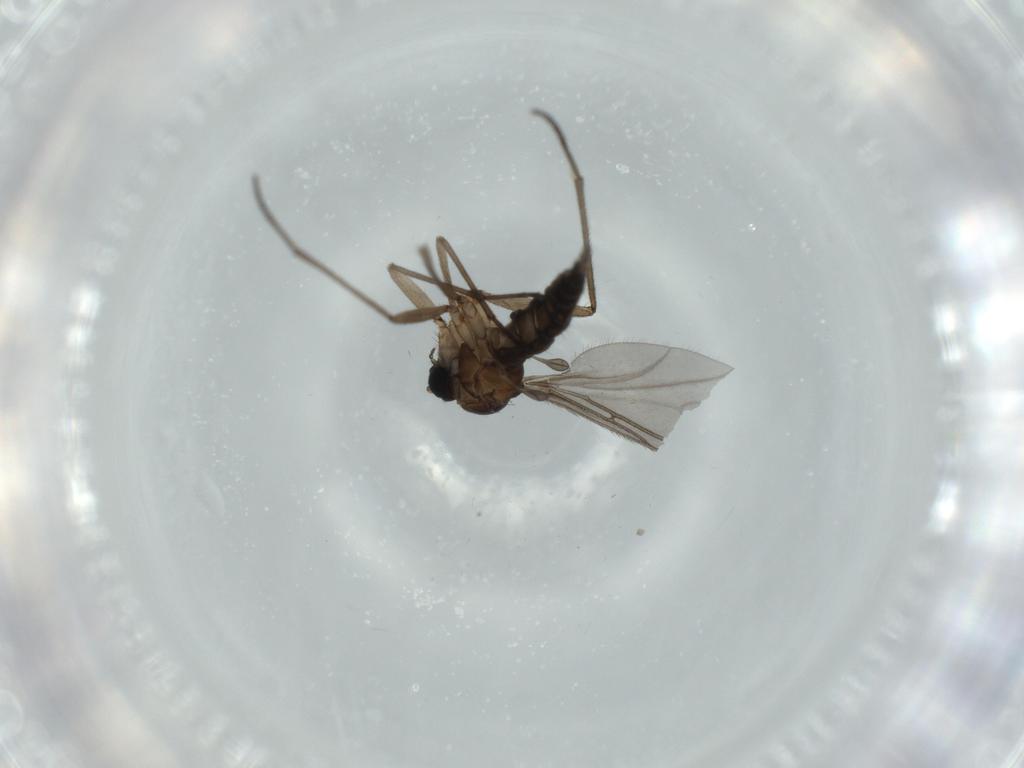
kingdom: Animalia
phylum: Arthropoda
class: Insecta
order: Diptera
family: Sciaridae
